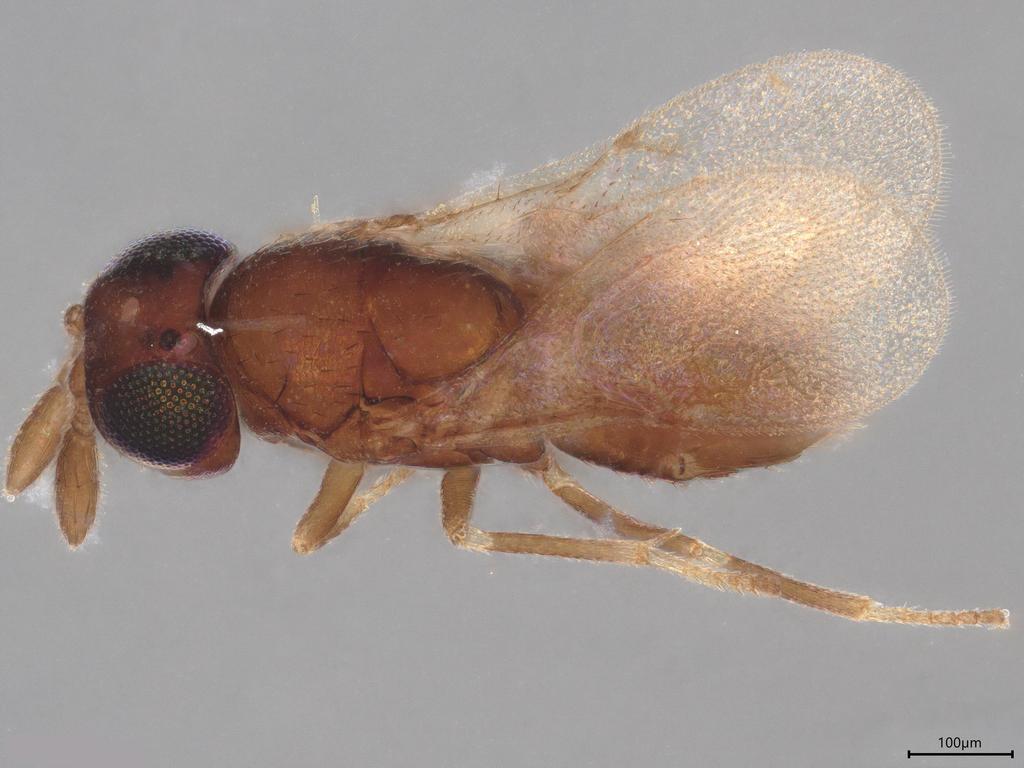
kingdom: Animalia
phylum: Arthropoda
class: Insecta
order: Hymenoptera
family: Encyrtidae
